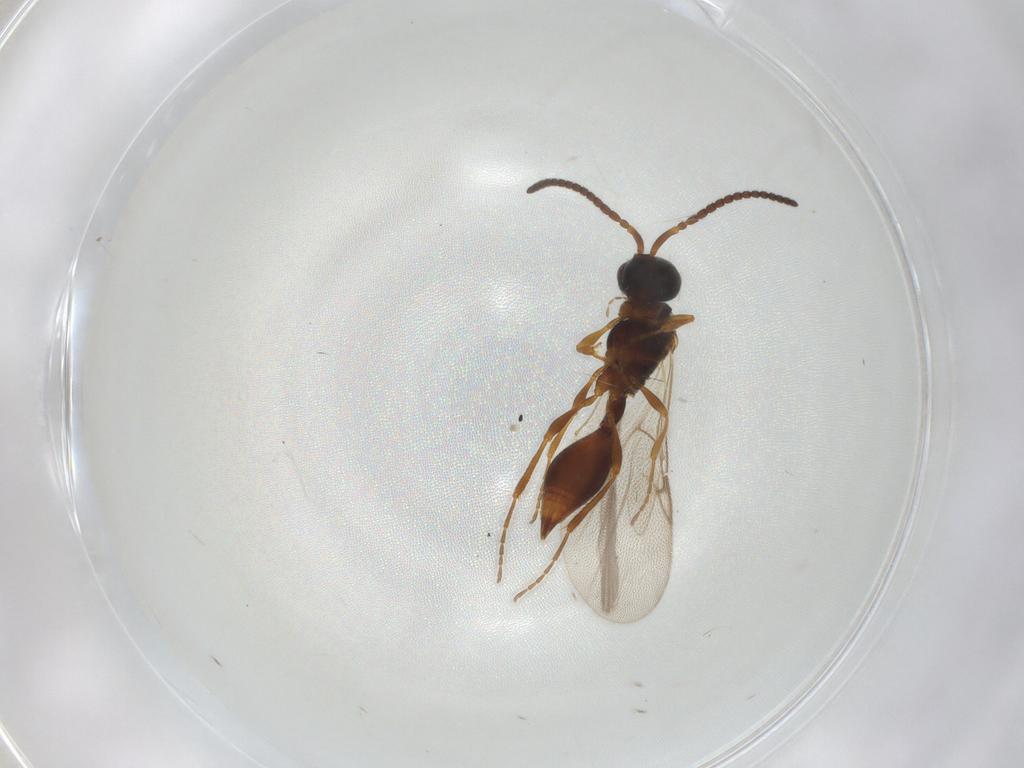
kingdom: Animalia
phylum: Arthropoda
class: Insecta
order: Hymenoptera
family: Diapriidae
